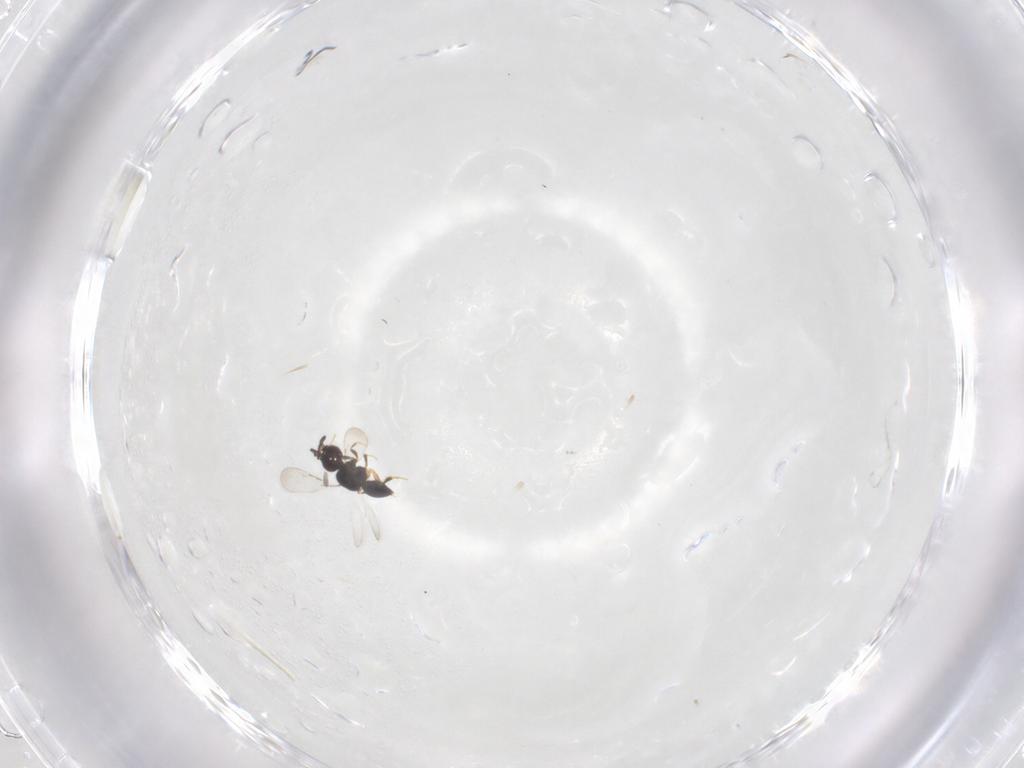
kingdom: Animalia
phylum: Arthropoda
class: Insecta
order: Hymenoptera
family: Ceraphronidae
